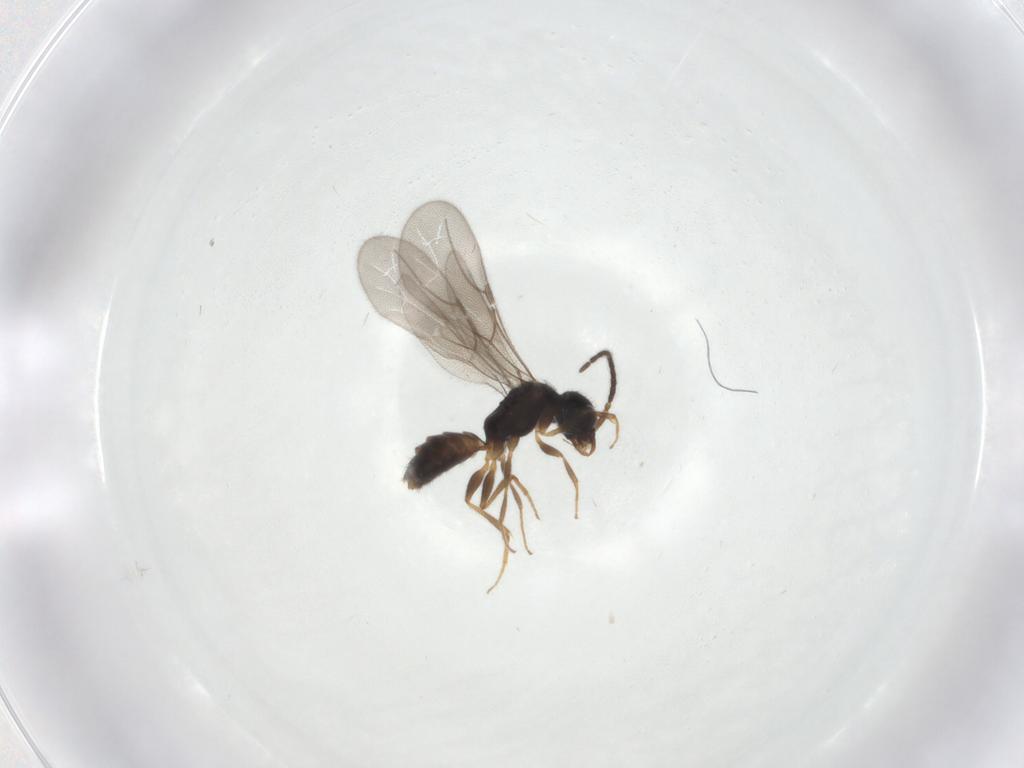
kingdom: Animalia
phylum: Arthropoda
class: Insecta
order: Hymenoptera
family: Bethylidae
